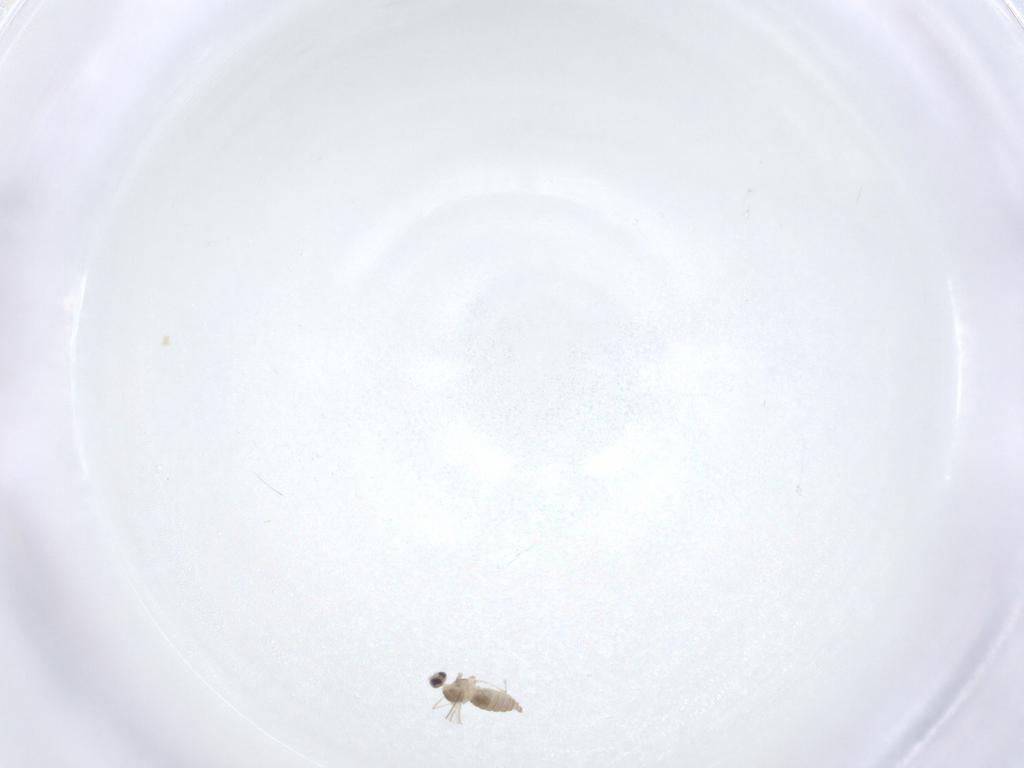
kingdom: Animalia
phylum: Arthropoda
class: Insecta
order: Diptera
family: Cecidomyiidae
